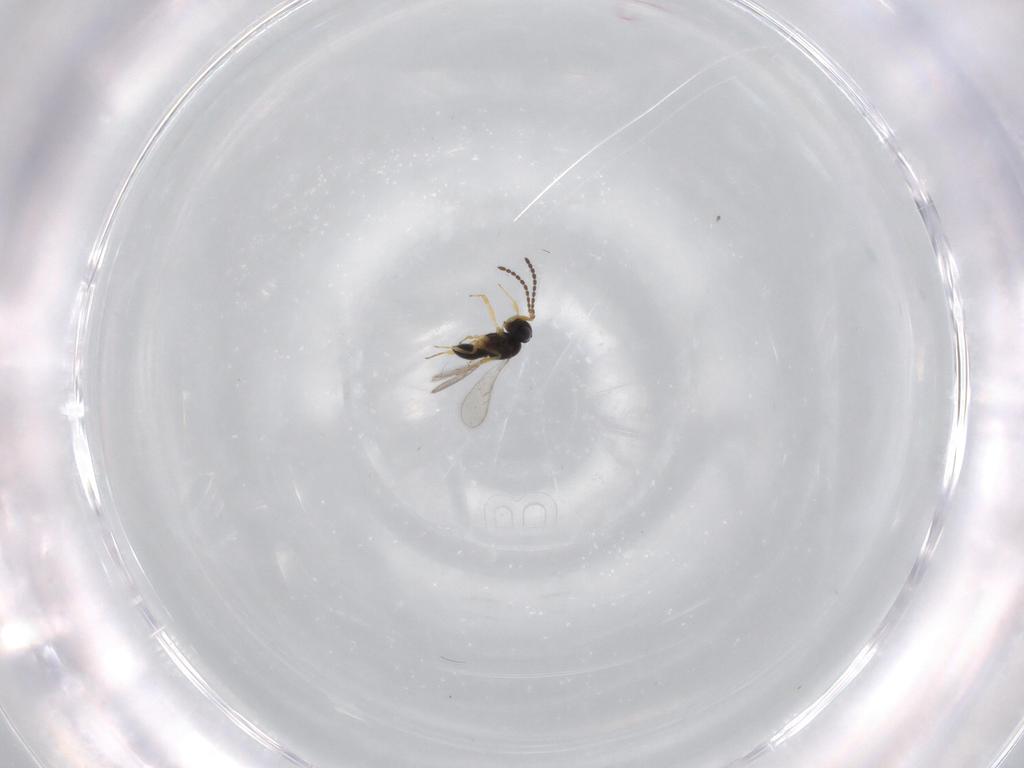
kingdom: Animalia
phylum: Arthropoda
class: Insecta
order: Hymenoptera
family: Scelionidae
